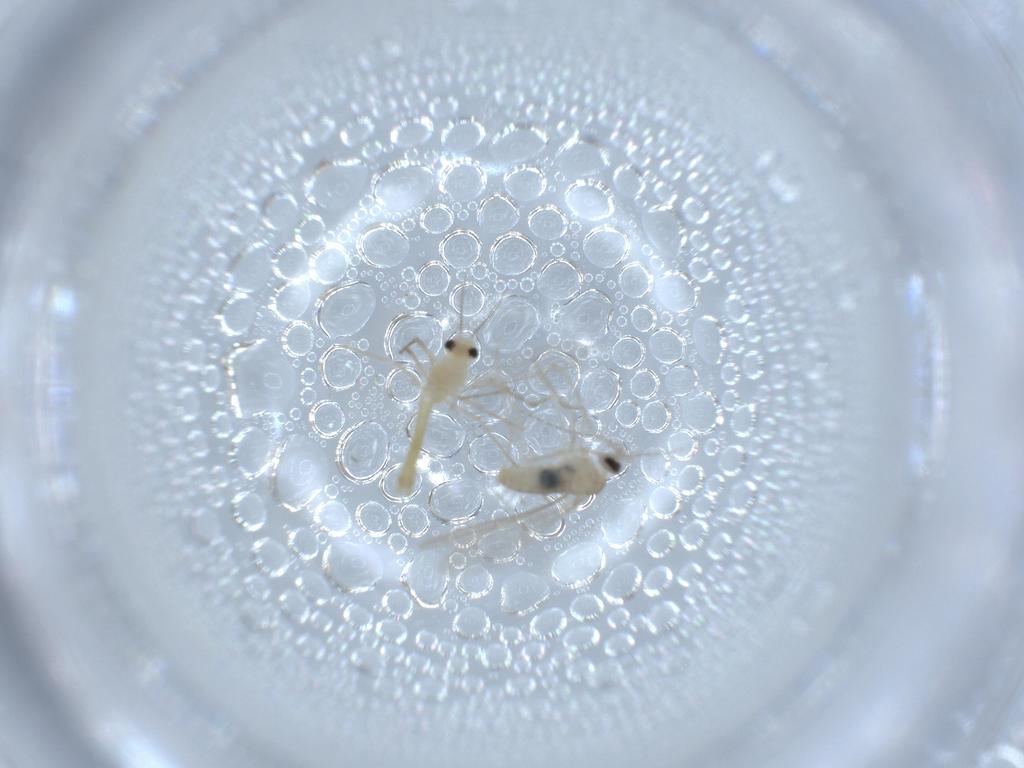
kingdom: Animalia
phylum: Arthropoda
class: Insecta
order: Diptera
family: Chironomidae
